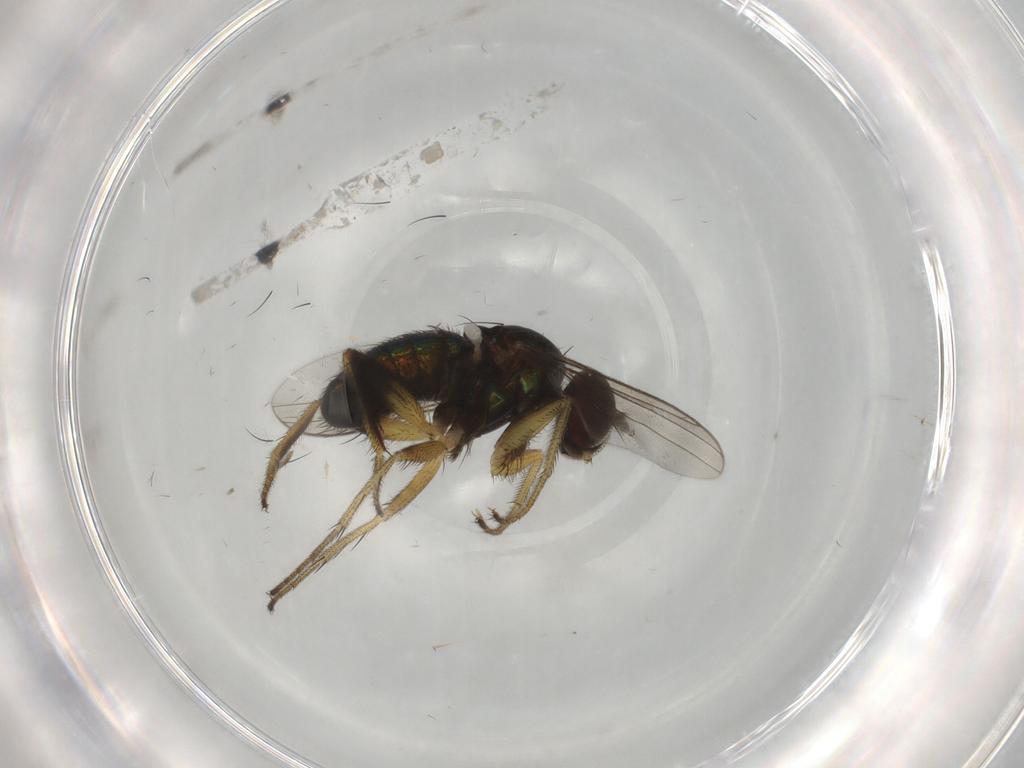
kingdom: Animalia
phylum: Arthropoda
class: Insecta
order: Diptera
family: Dolichopodidae
